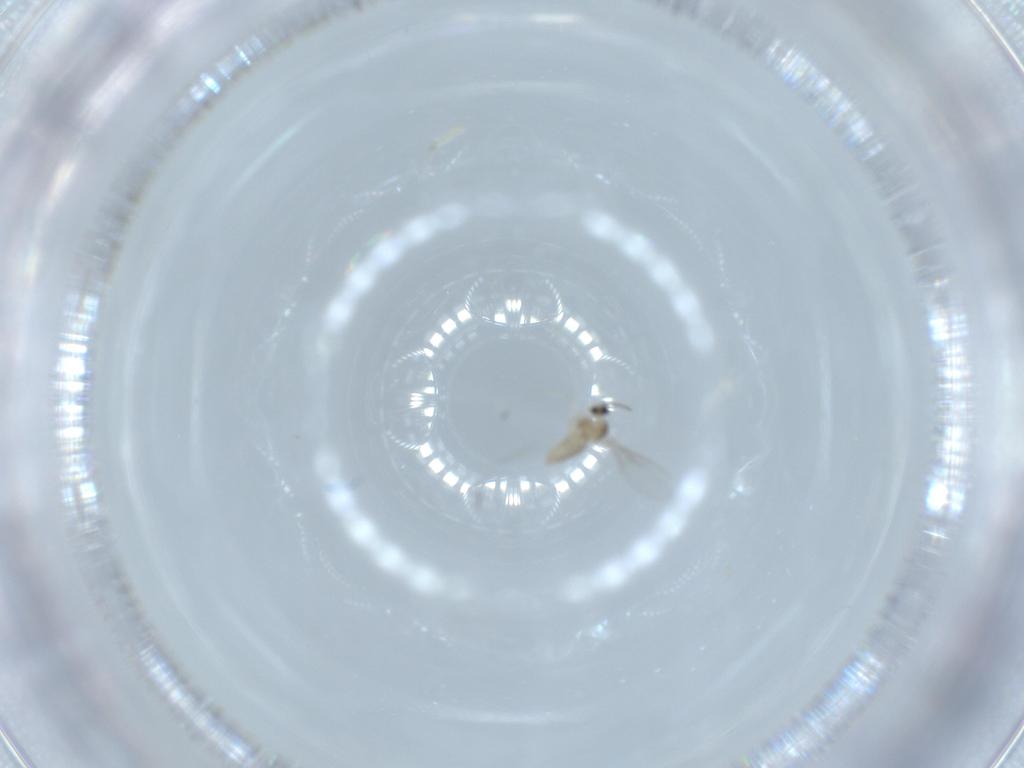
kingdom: Animalia
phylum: Arthropoda
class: Insecta
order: Diptera
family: Cecidomyiidae
